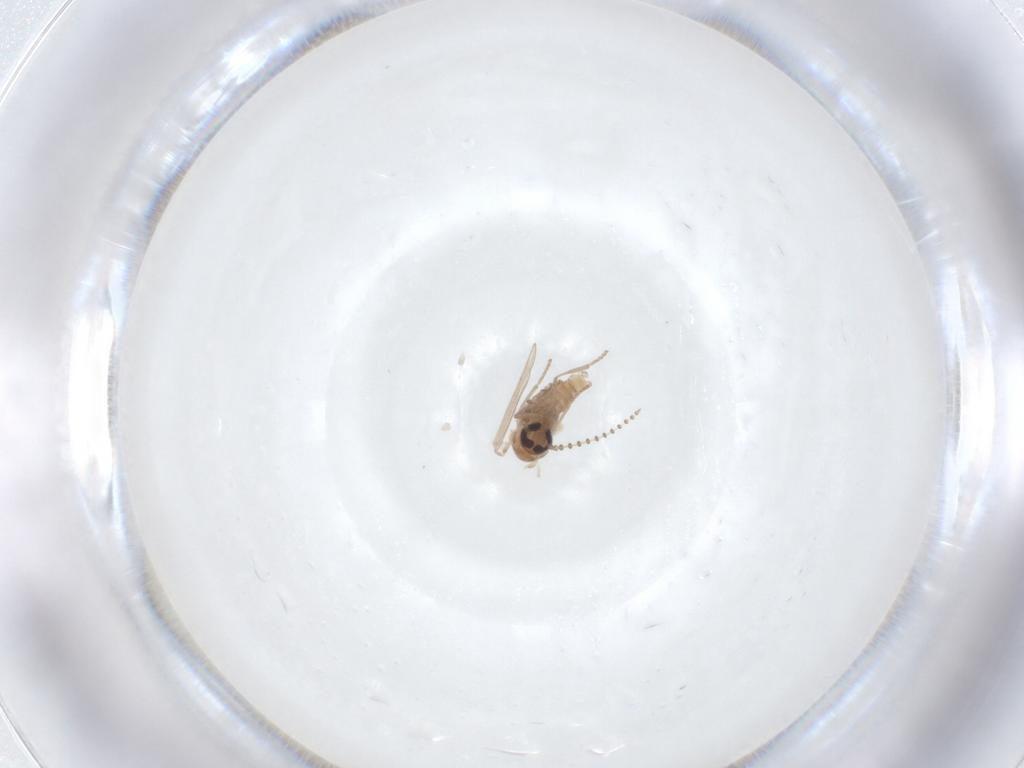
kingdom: Animalia
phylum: Arthropoda
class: Insecta
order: Diptera
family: Psychodidae
